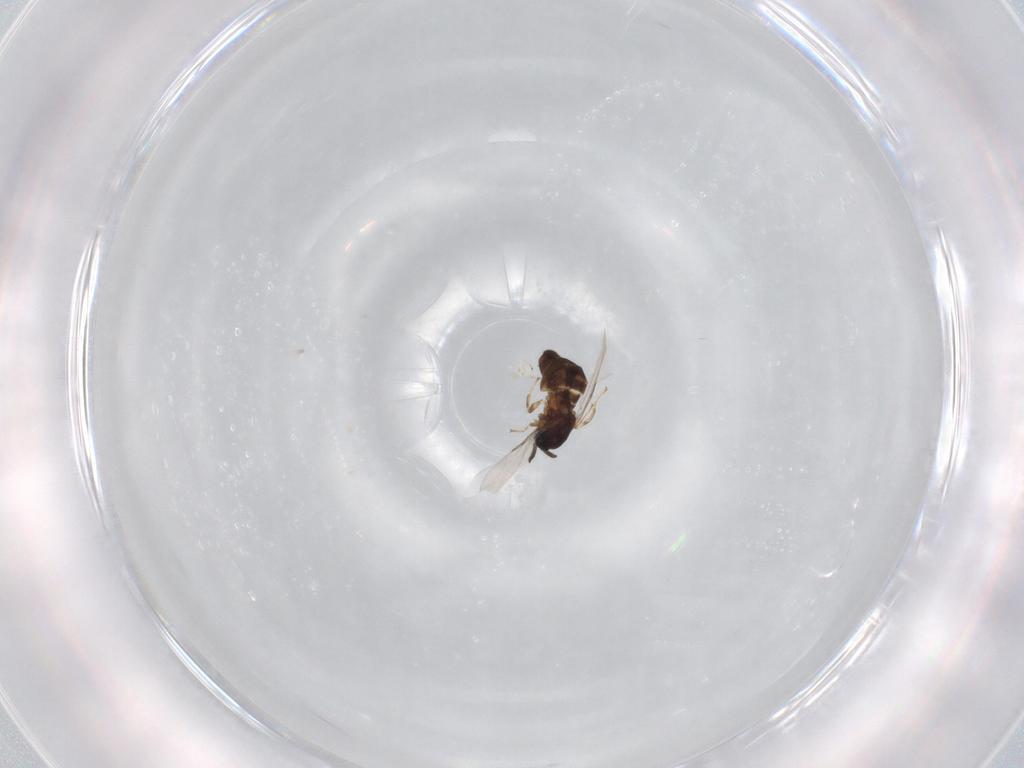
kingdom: Animalia
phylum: Arthropoda
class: Insecta
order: Diptera
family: Scatopsidae
